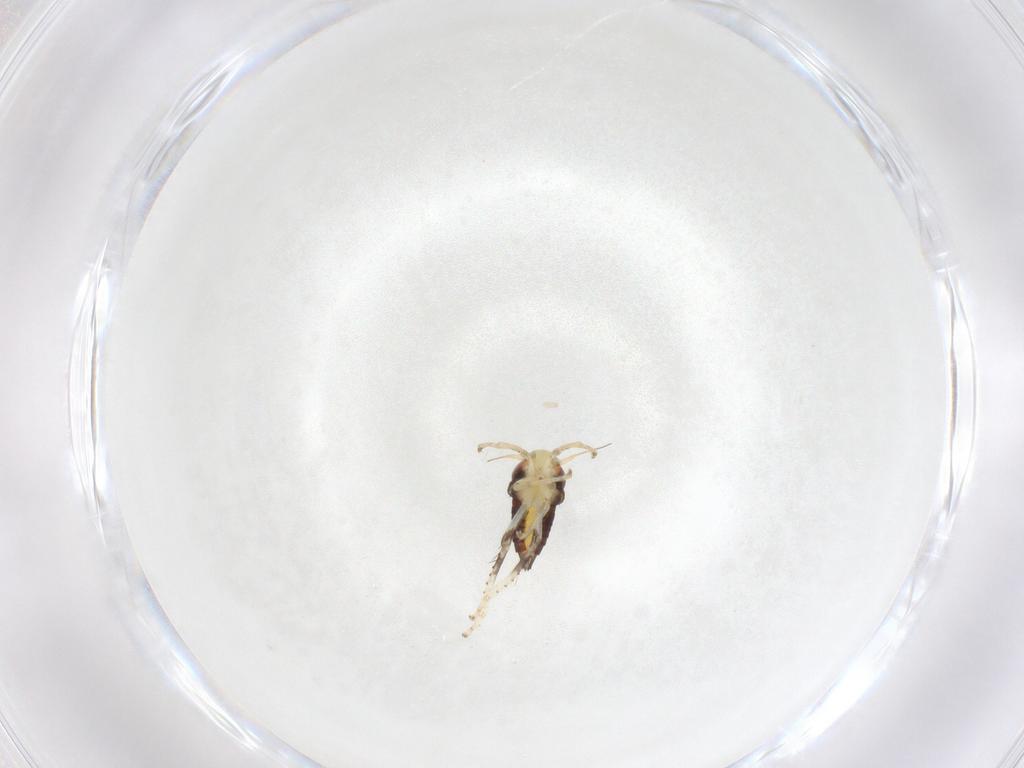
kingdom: Animalia
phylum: Arthropoda
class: Insecta
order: Hemiptera
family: Cicadellidae
